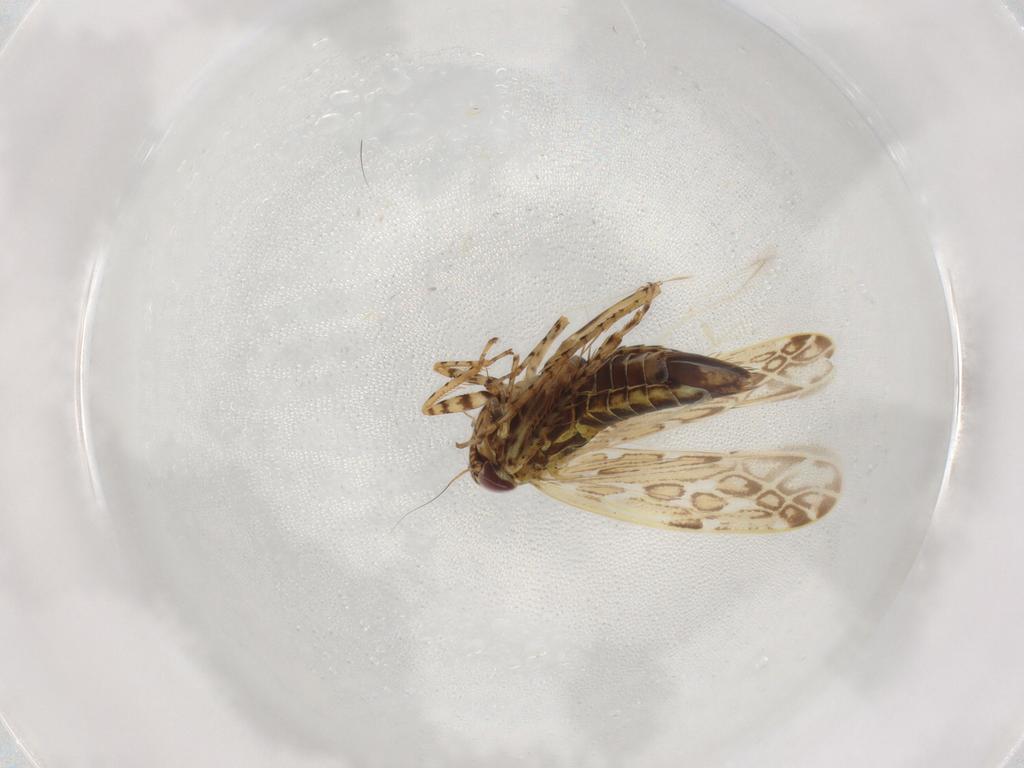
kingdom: Animalia
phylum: Arthropoda
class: Insecta
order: Hemiptera
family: Cicadellidae
